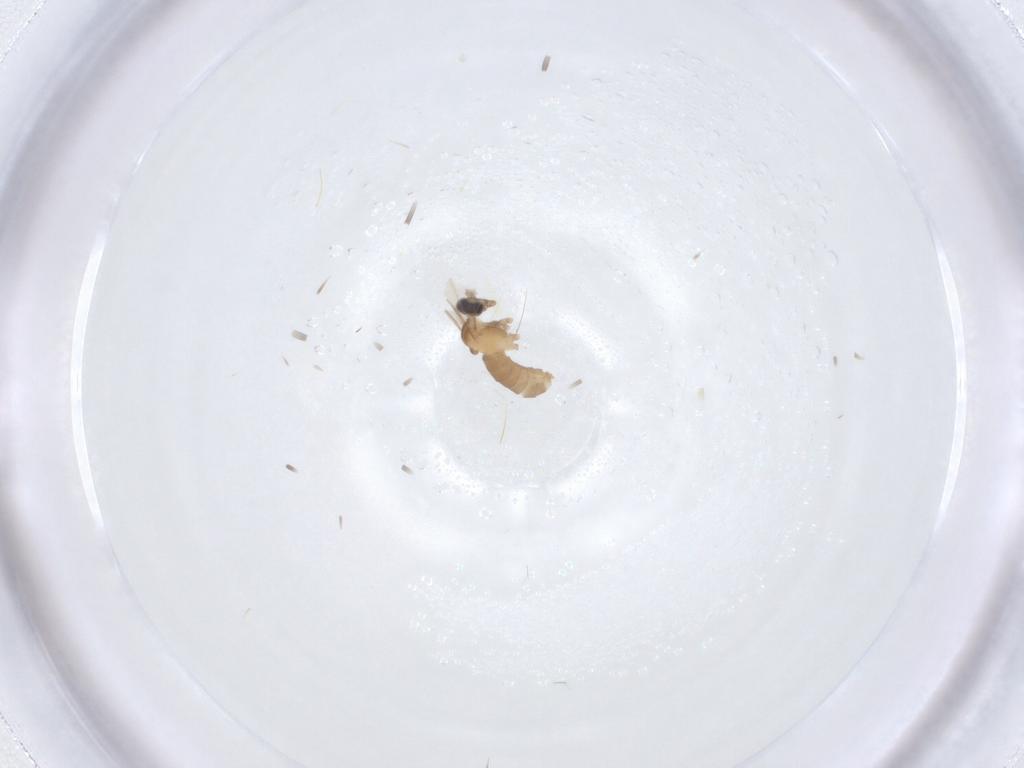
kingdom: Animalia
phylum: Arthropoda
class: Insecta
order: Diptera
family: Cecidomyiidae
